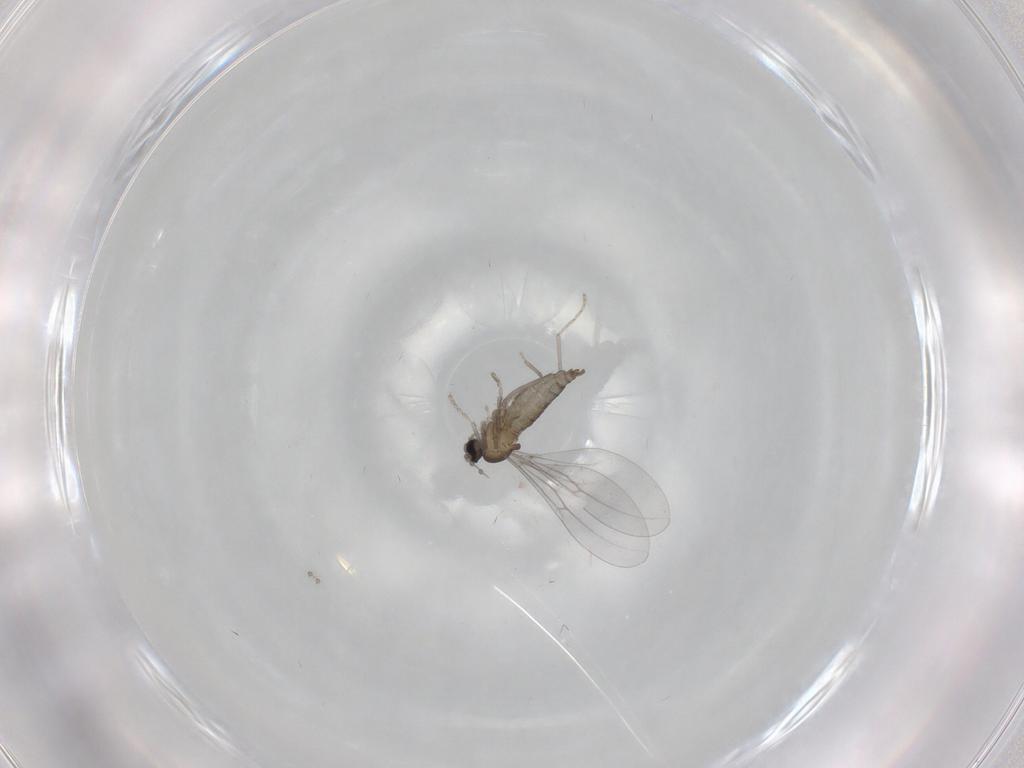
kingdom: Animalia
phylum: Arthropoda
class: Insecta
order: Diptera
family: Cecidomyiidae
